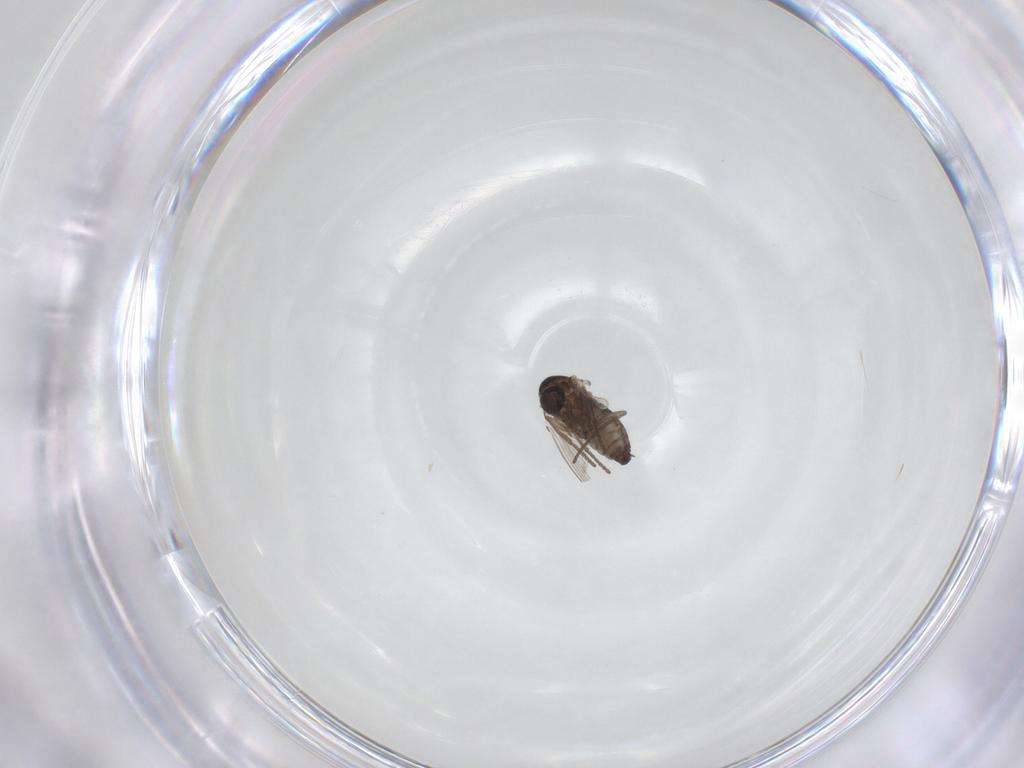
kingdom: Animalia
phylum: Arthropoda
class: Insecta
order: Diptera
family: Psychodidae
